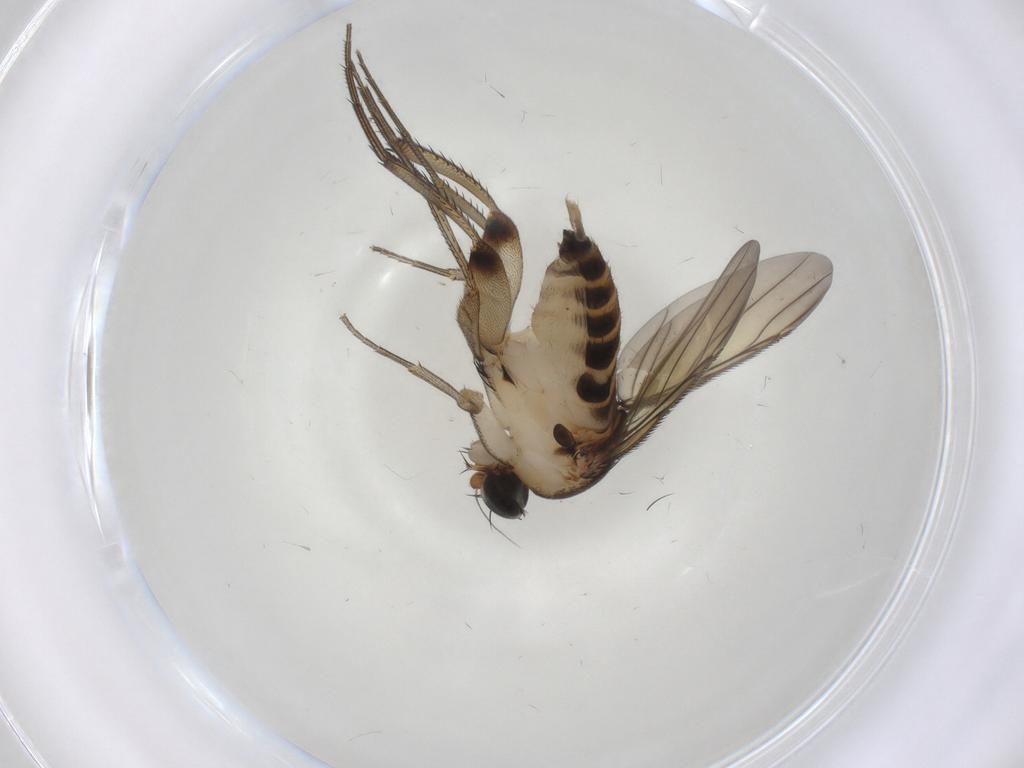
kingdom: Animalia
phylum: Arthropoda
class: Insecta
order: Diptera
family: Phoridae
